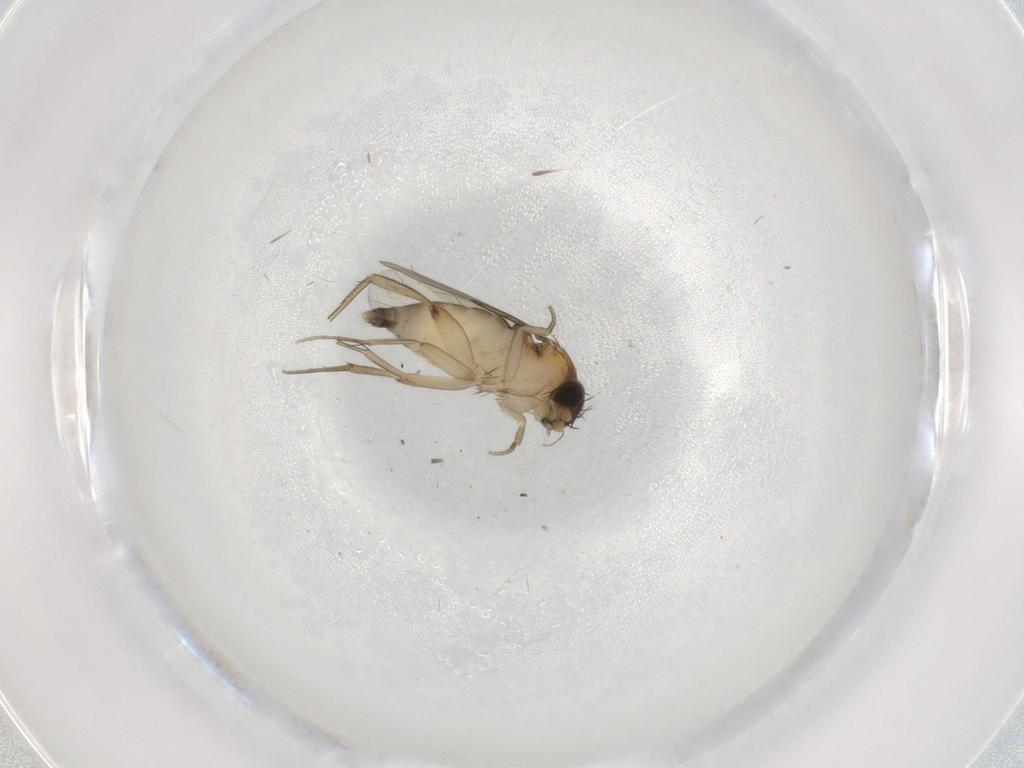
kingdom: Animalia
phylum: Arthropoda
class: Insecta
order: Diptera
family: Phoridae
